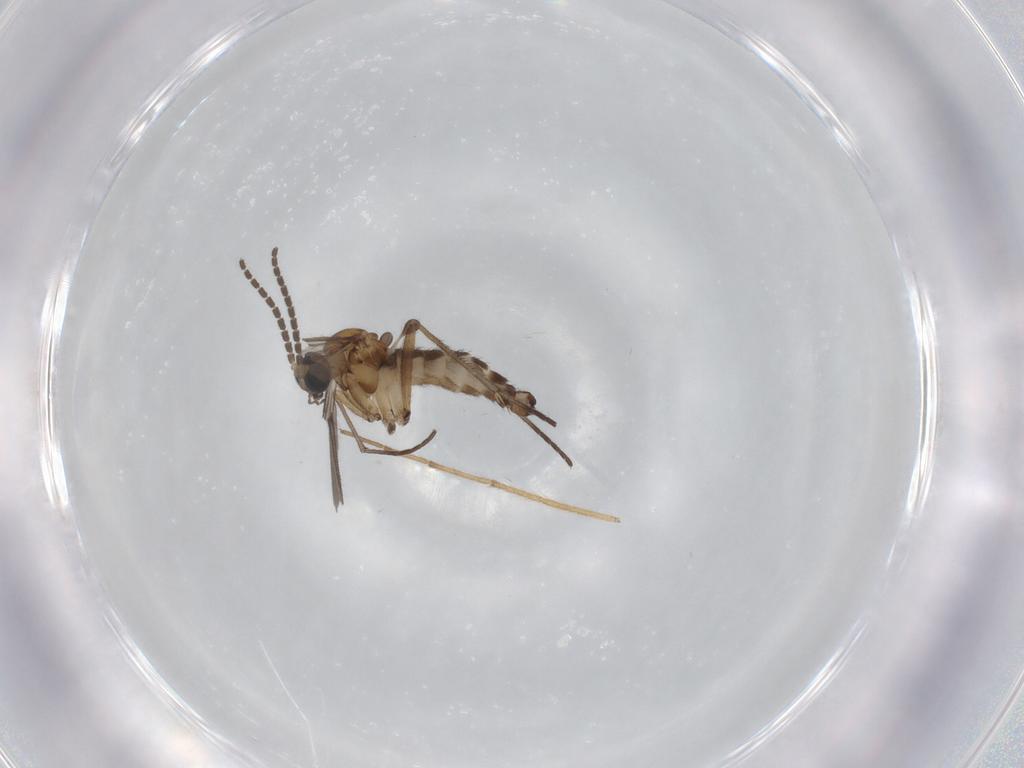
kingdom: Animalia
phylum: Arthropoda
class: Insecta
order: Diptera
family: Sciaridae
